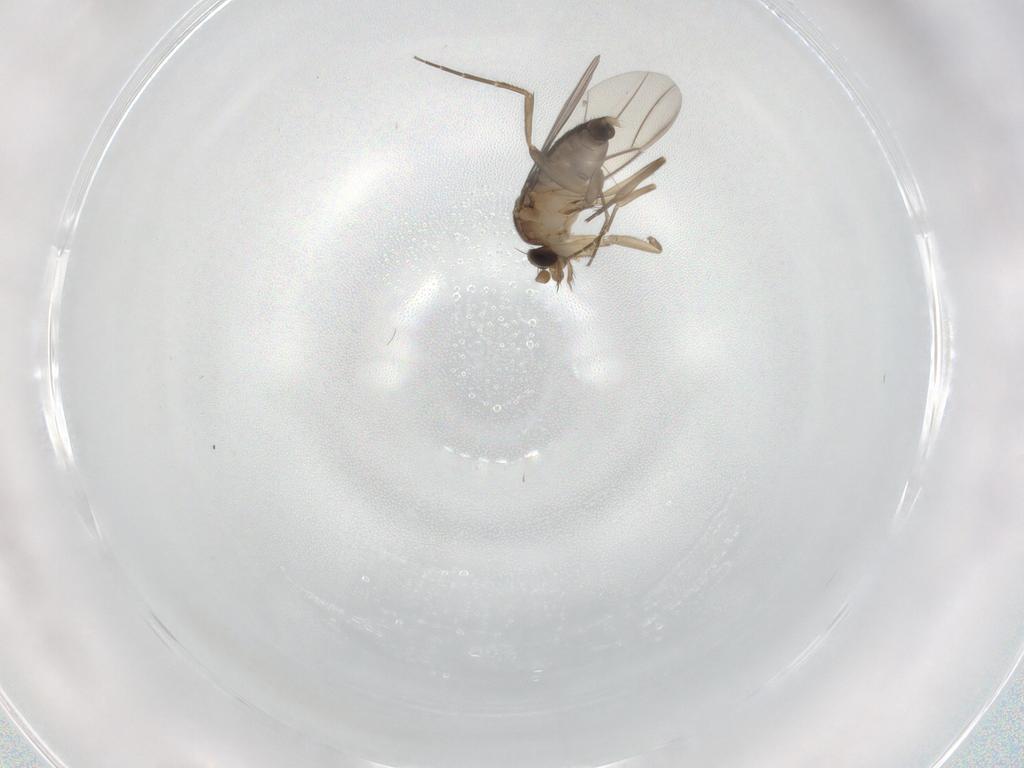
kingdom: Animalia
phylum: Arthropoda
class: Insecta
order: Diptera
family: Phoridae
